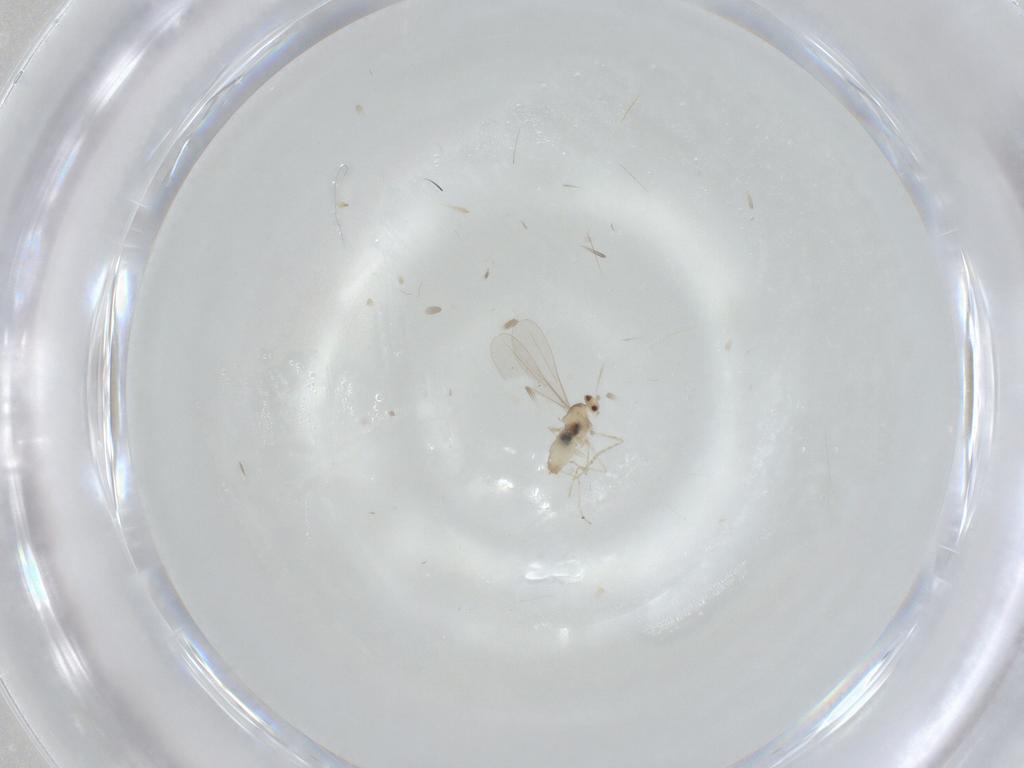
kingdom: Animalia
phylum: Arthropoda
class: Insecta
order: Diptera
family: Cecidomyiidae
